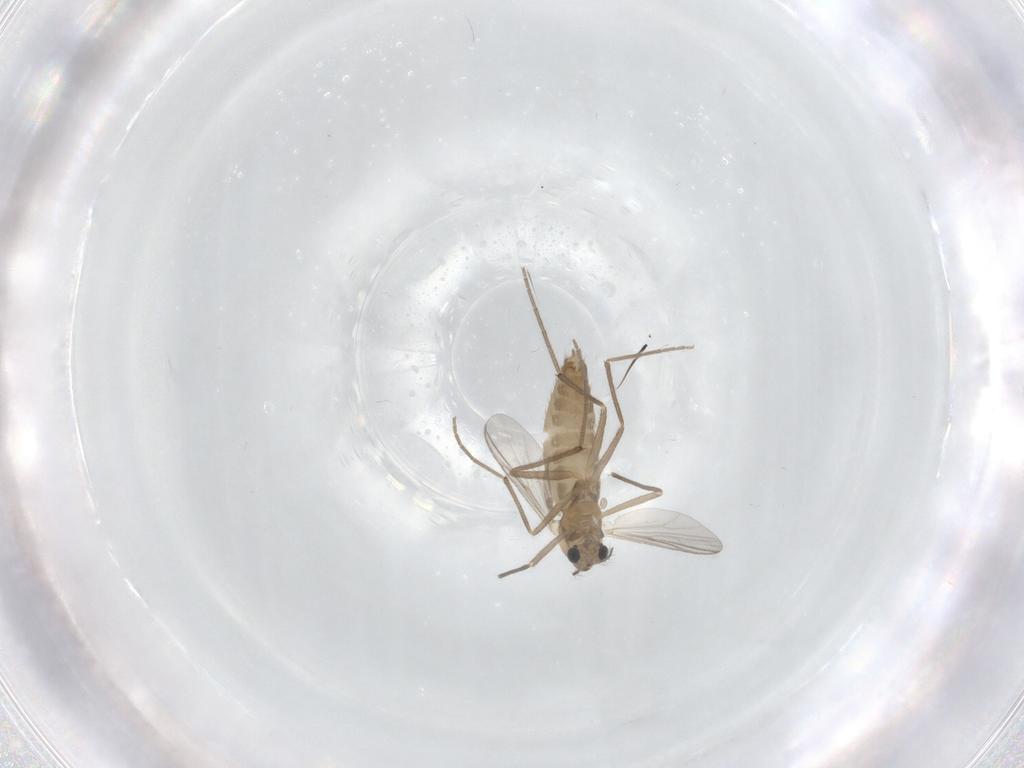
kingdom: Animalia
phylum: Arthropoda
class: Insecta
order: Diptera
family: Chironomidae
